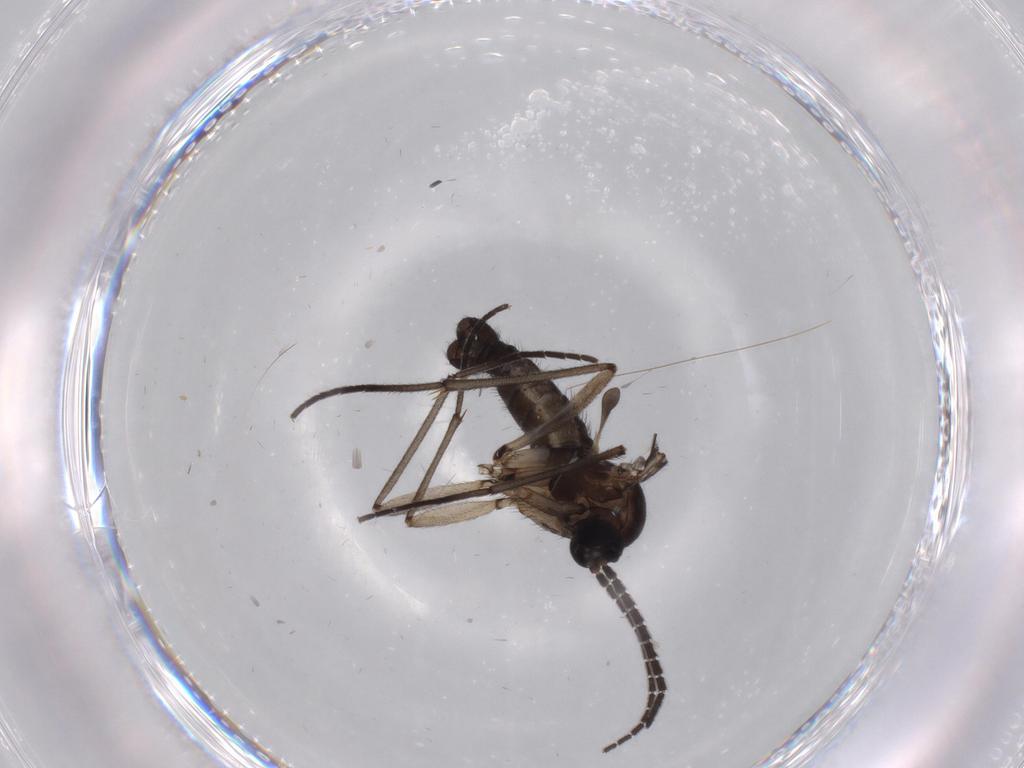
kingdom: Animalia
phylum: Arthropoda
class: Insecta
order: Diptera
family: Sciaridae
